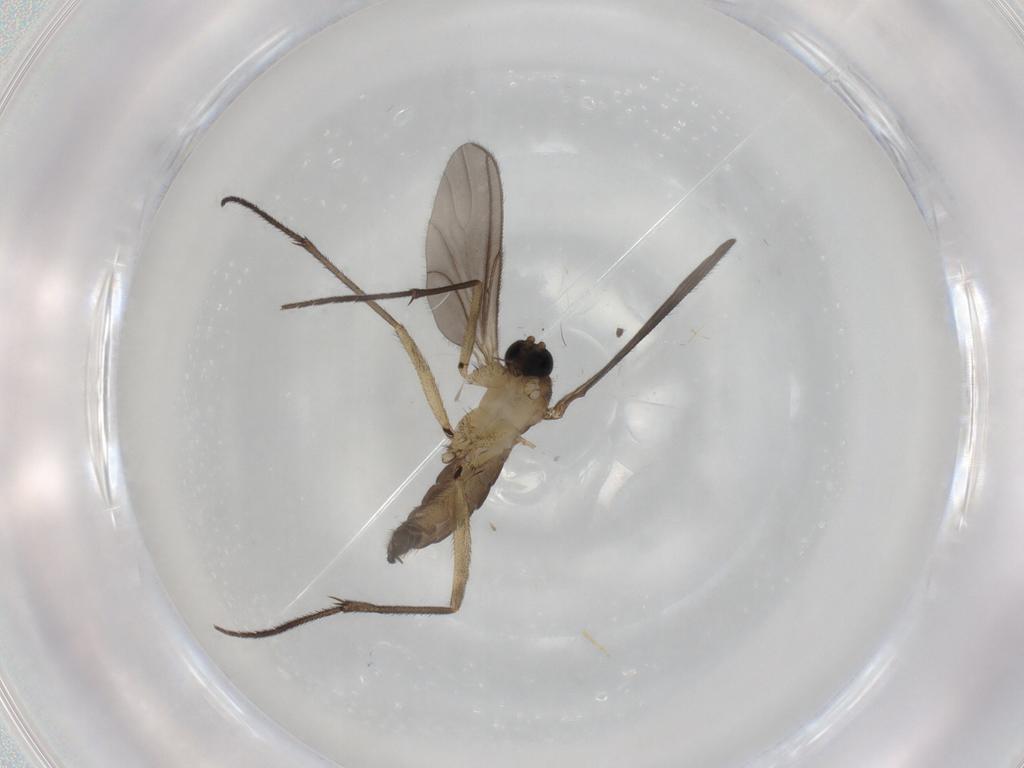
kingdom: Animalia
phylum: Arthropoda
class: Insecta
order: Diptera
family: Sciaridae
